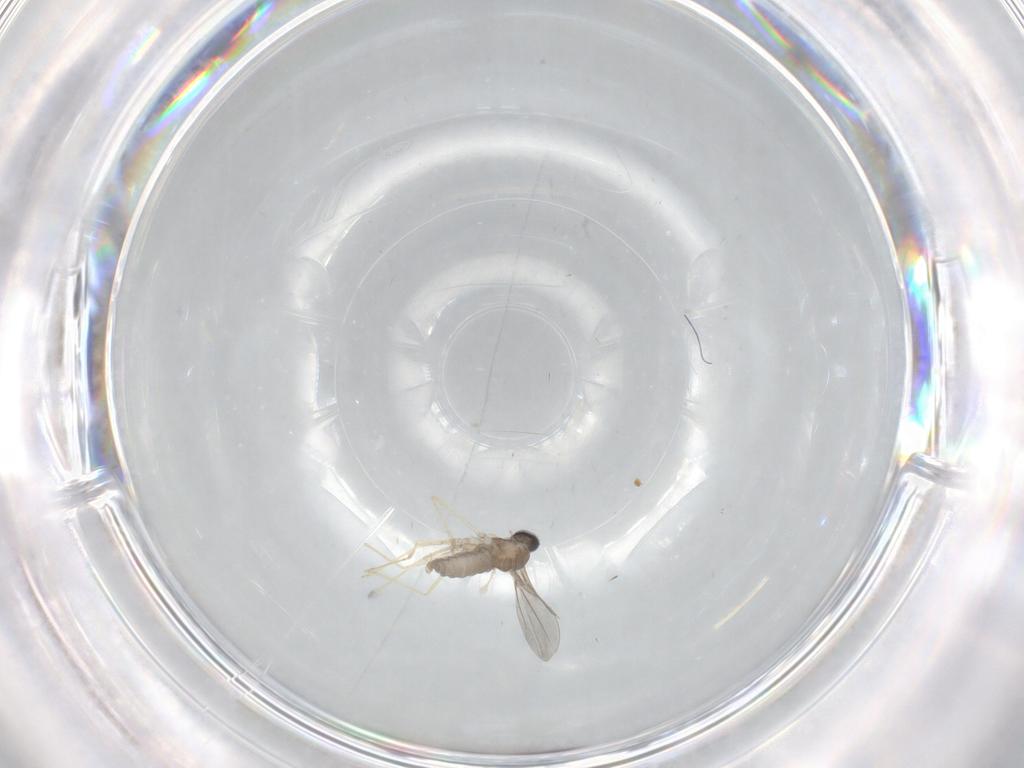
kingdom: Animalia
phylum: Arthropoda
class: Insecta
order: Diptera
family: Cecidomyiidae
